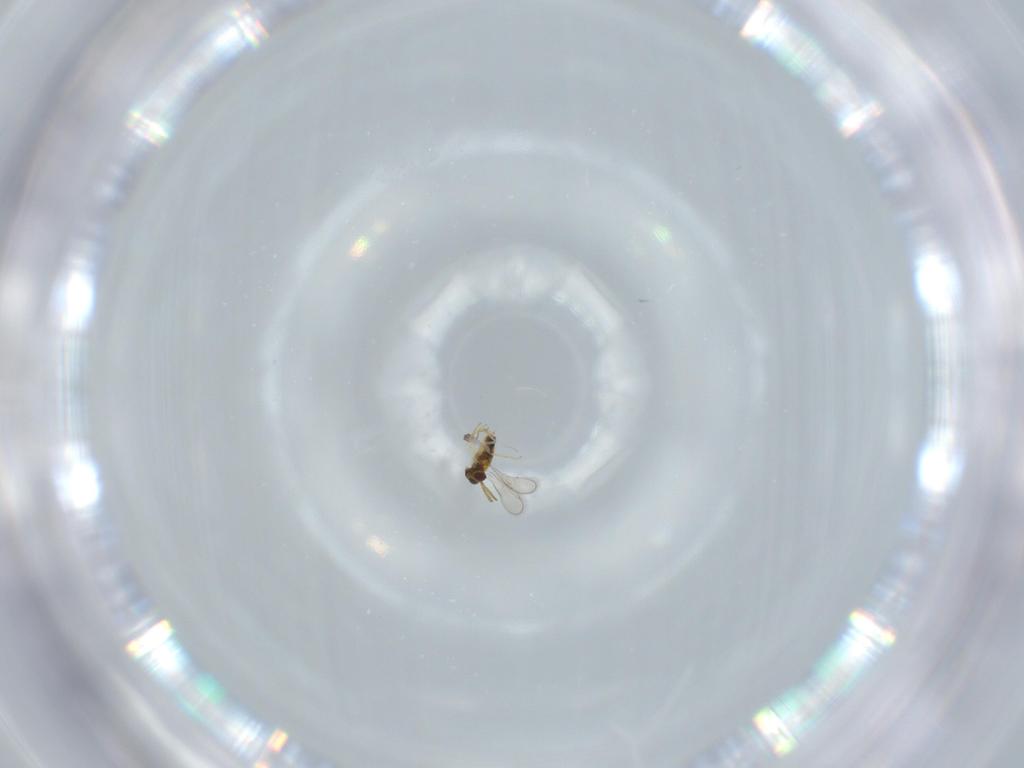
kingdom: Animalia
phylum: Arthropoda
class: Insecta
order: Hymenoptera
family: Aphelinidae
